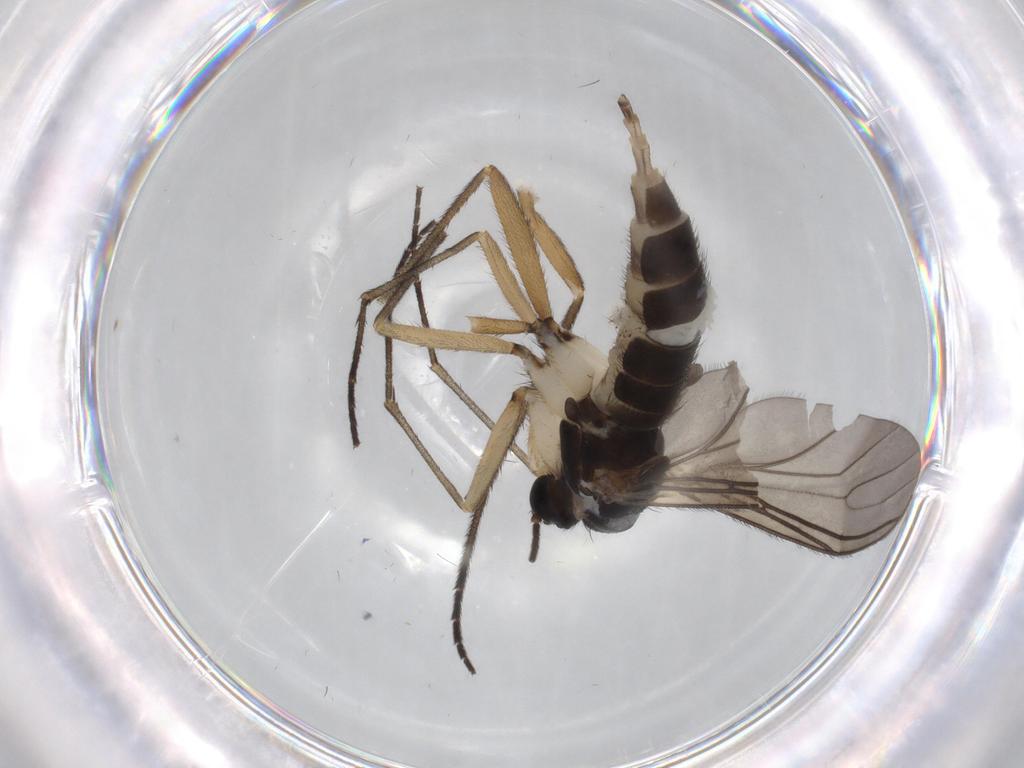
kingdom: Animalia
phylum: Arthropoda
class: Insecta
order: Diptera
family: Sciaridae
